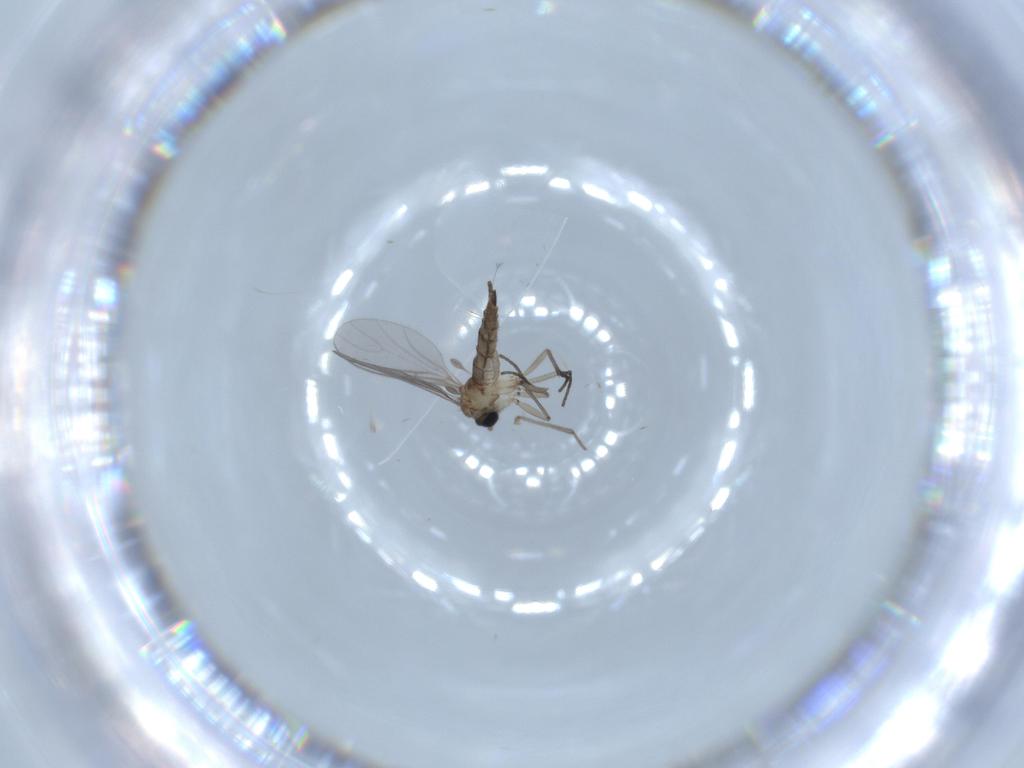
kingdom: Animalia
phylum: Arthropoda
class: Insecta
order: Diptera
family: Sciaridae
